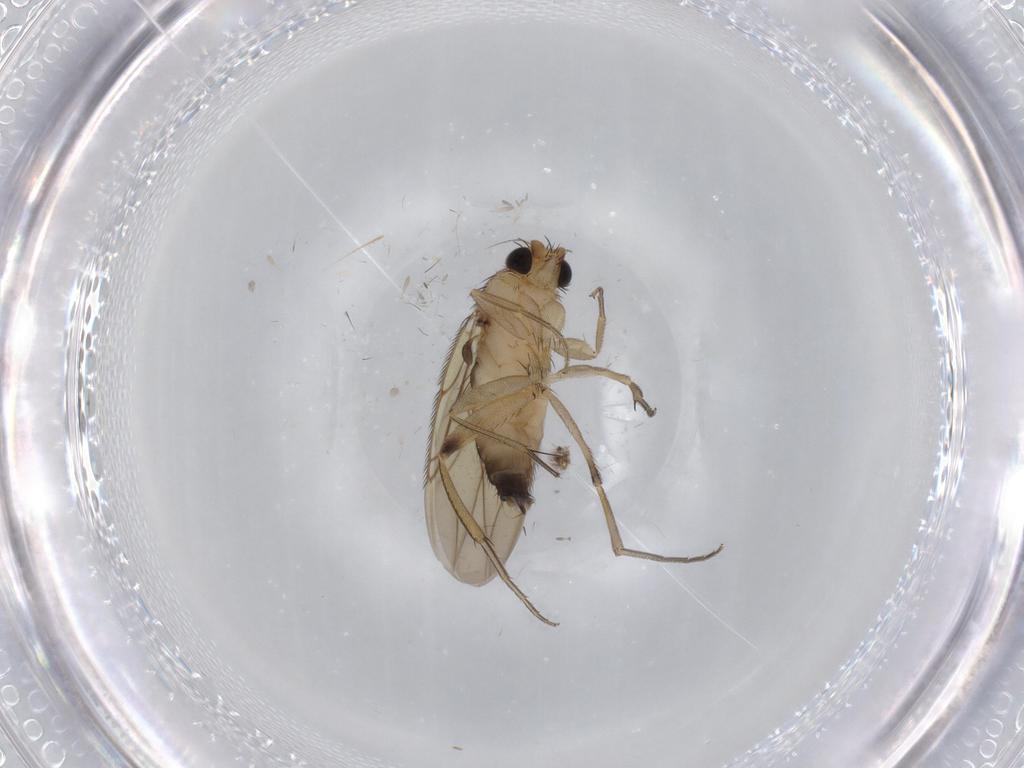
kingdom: Animalia
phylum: Arthropoda
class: Insecta
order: Diptera
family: Phoridae
